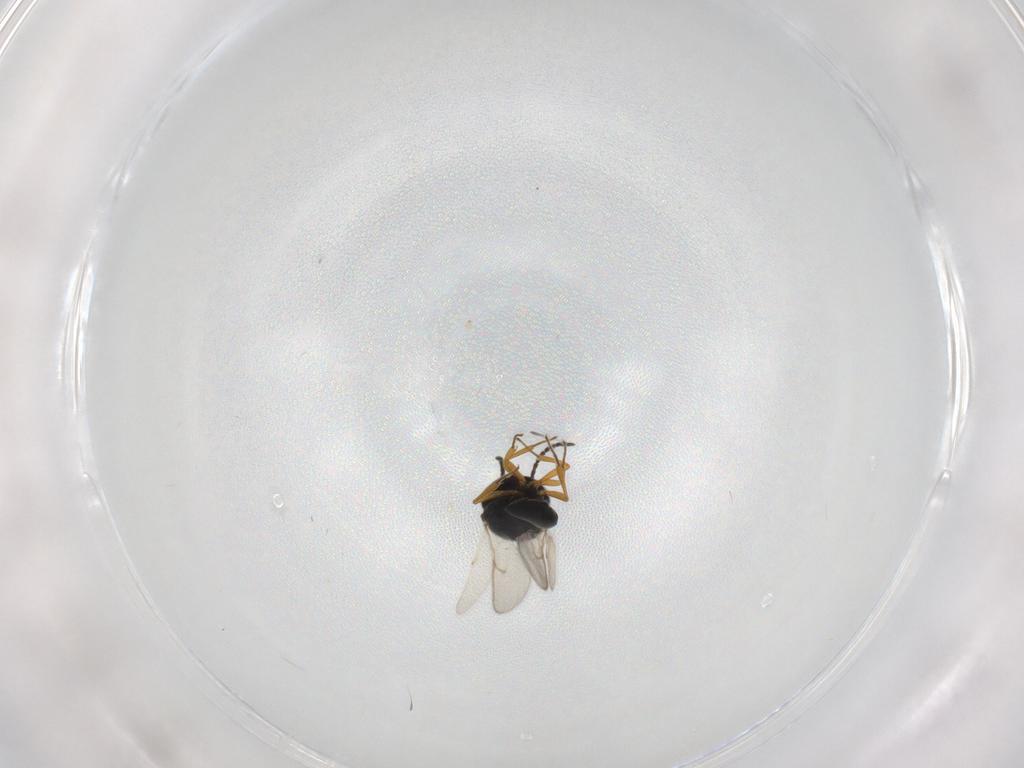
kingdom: Animalia
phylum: Arthropoda
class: Insecta
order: Hymenoptera
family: Scelionidae
